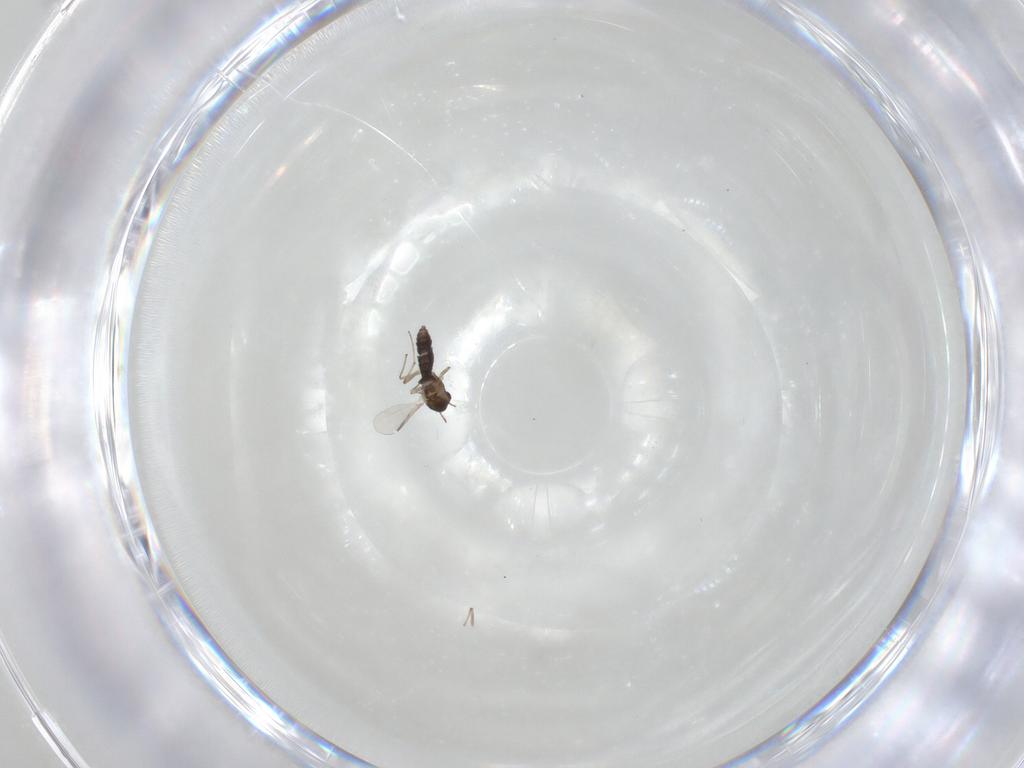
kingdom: Animalia
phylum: Arthropoda
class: Insecta
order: Diptera
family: Chironomidae
